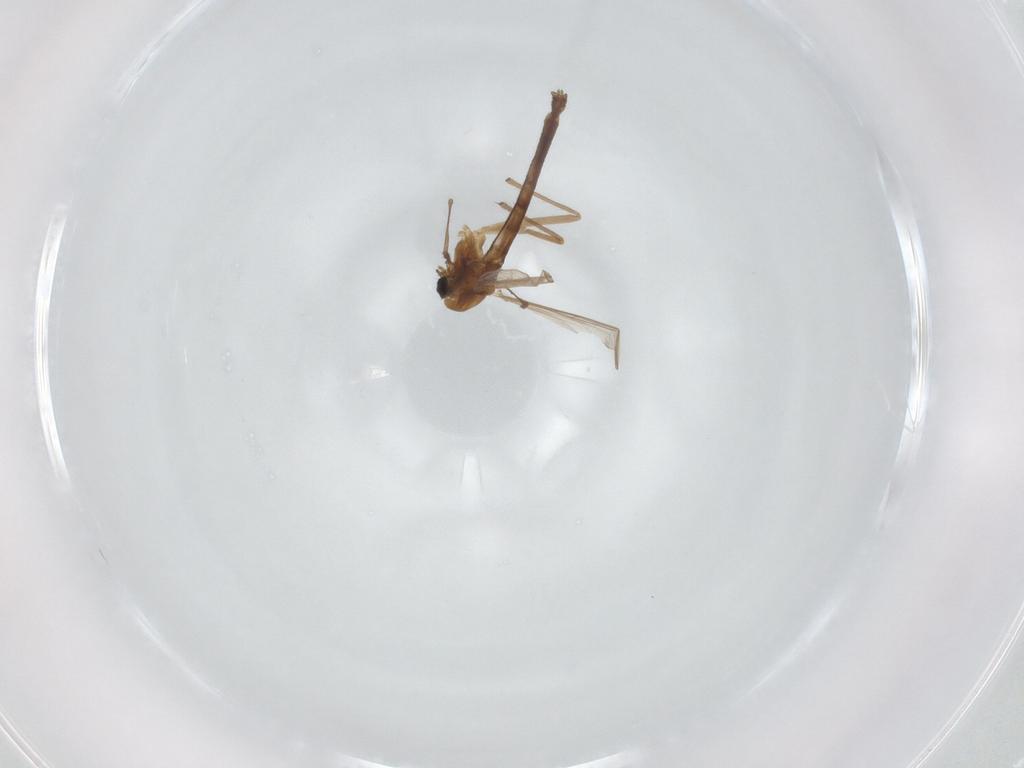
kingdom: Animalia
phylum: Arthropoda
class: Insecta
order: Diptera
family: Chironomidae
